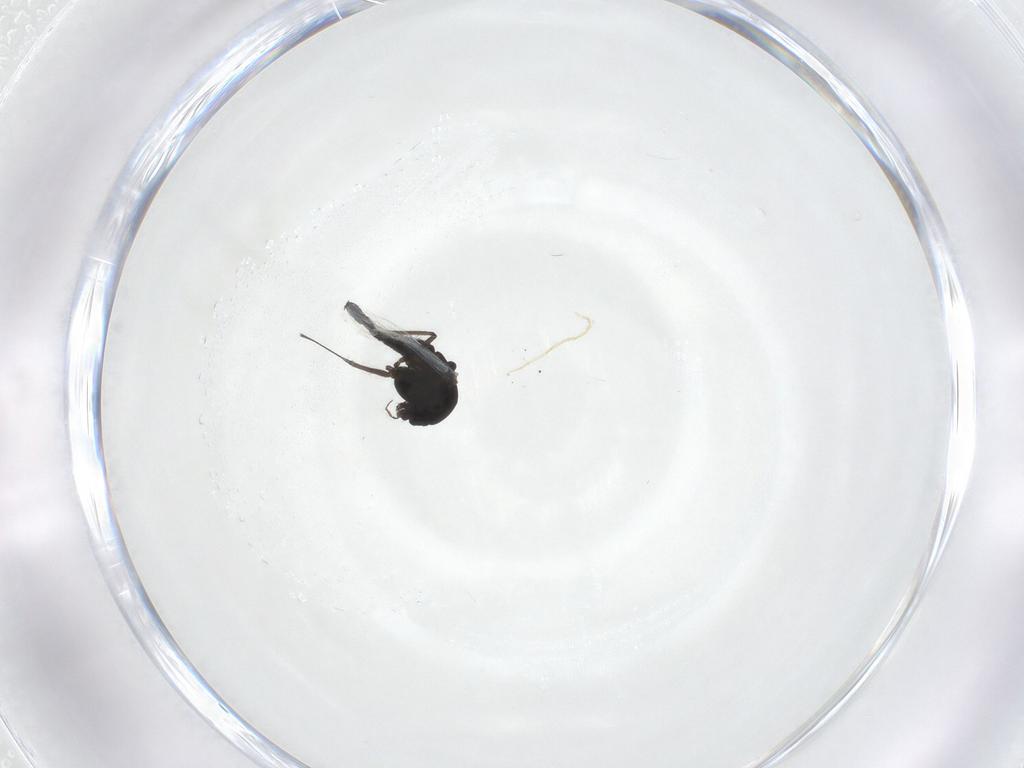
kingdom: Animalia
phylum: Arthropoda
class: Insecta
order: Diptera
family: Chironomidae
